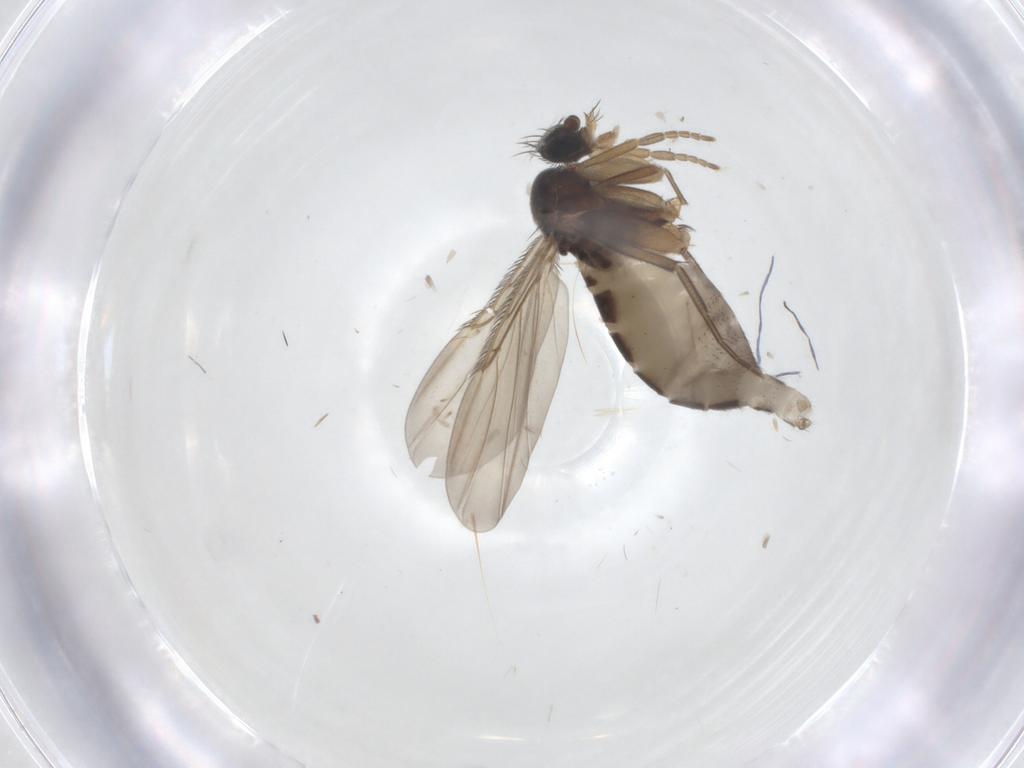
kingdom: Animalia
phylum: Arthropoda
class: Insecta
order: Diptera
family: Phoridae
